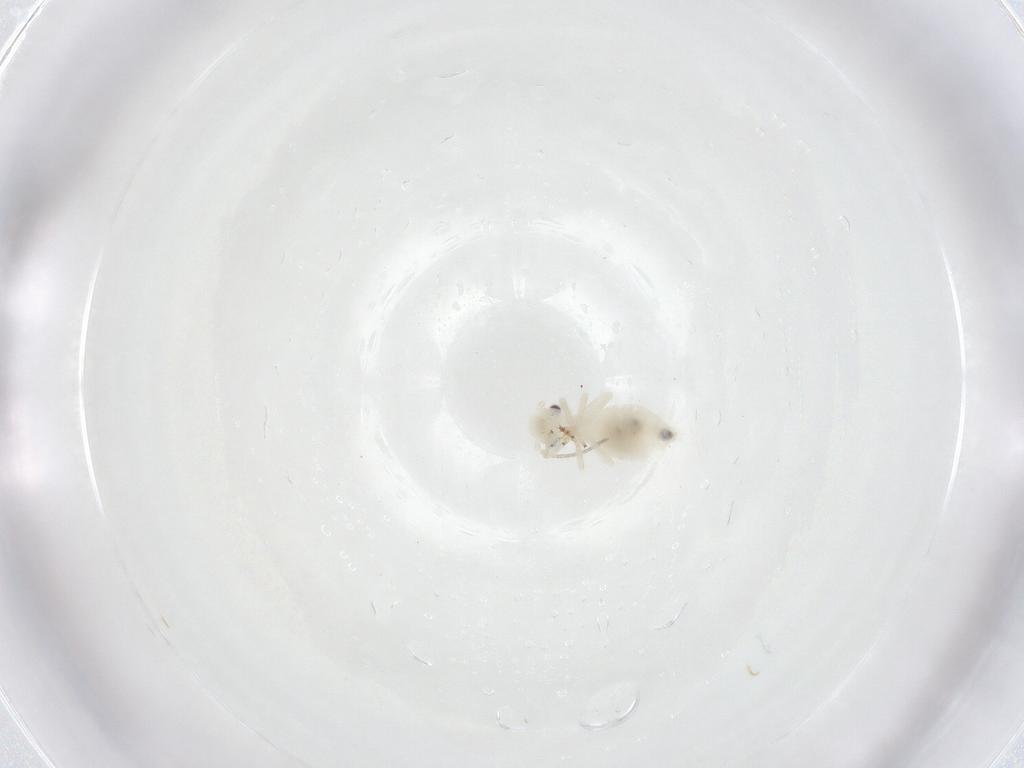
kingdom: Animalia
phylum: Arthropoda
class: Insecta
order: Psocodea
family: Caeciliusidae
